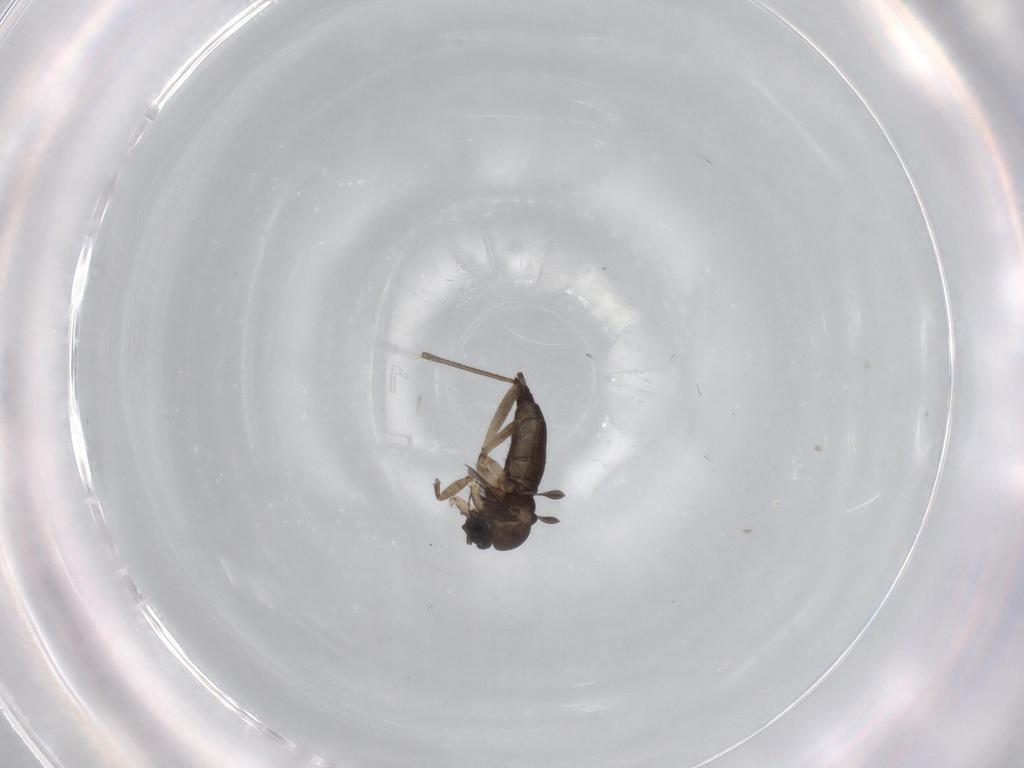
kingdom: Animalia
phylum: Arthropoda
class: Insecta
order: Diptera
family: Sciaridae
